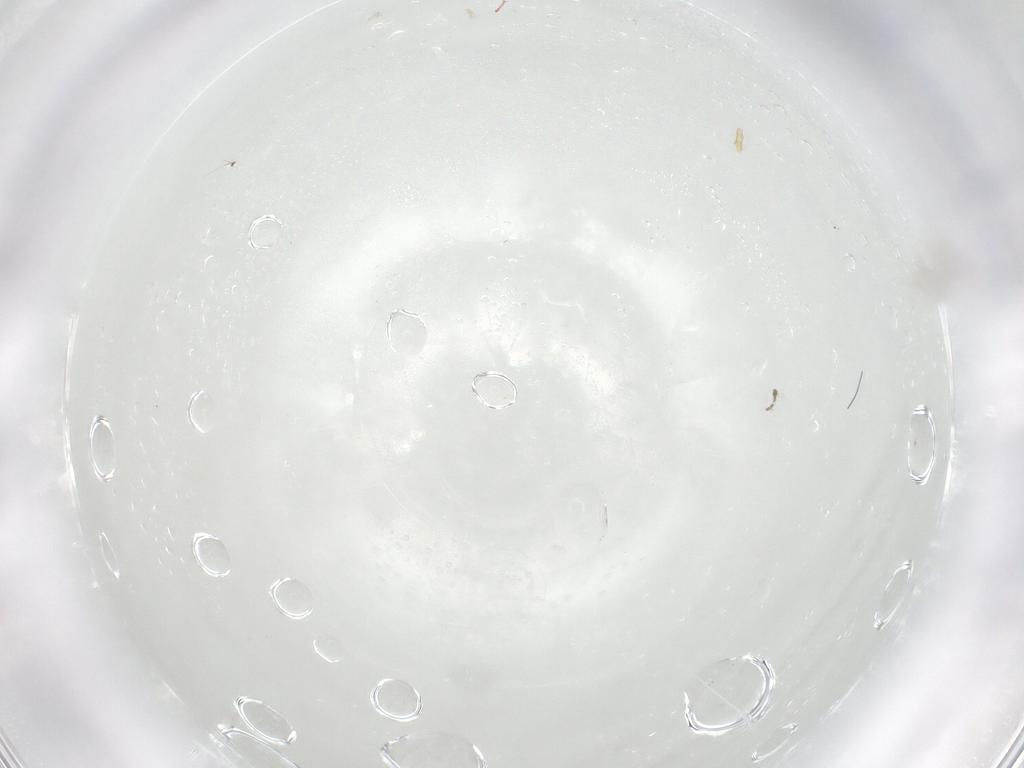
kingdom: Animalia
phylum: Arthropoda
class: Insecta
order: Diptera
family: Ceratopogonidae
